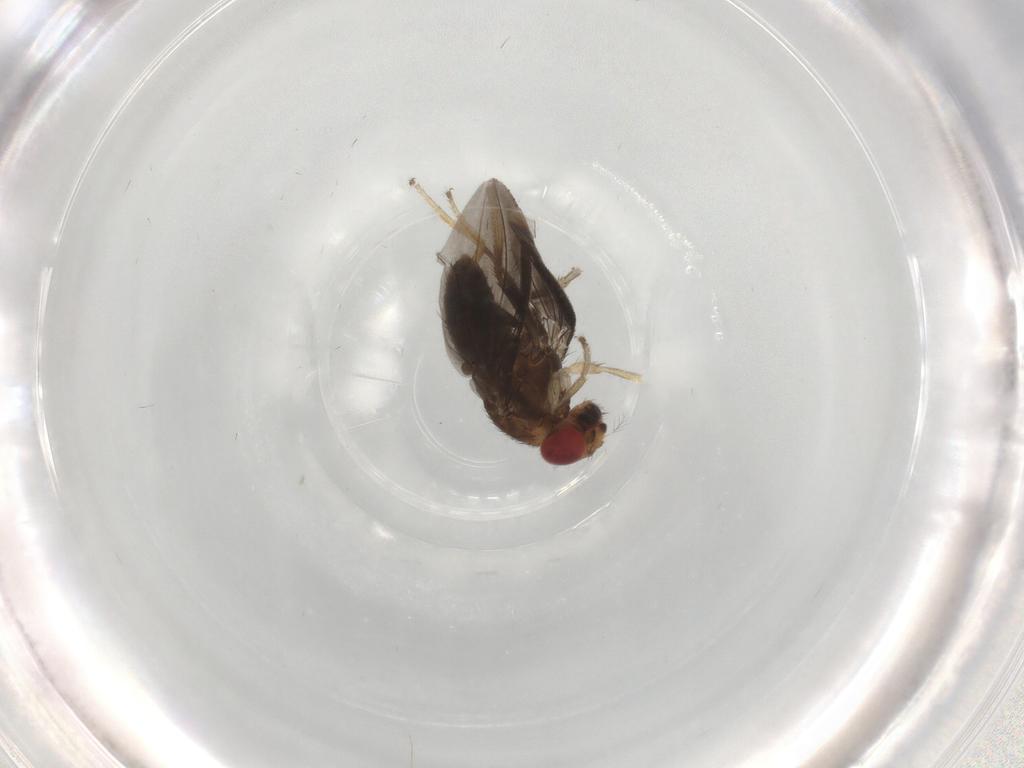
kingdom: Animalia
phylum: Arthropoda
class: Insecta
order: Diptera
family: Drosophilidae
